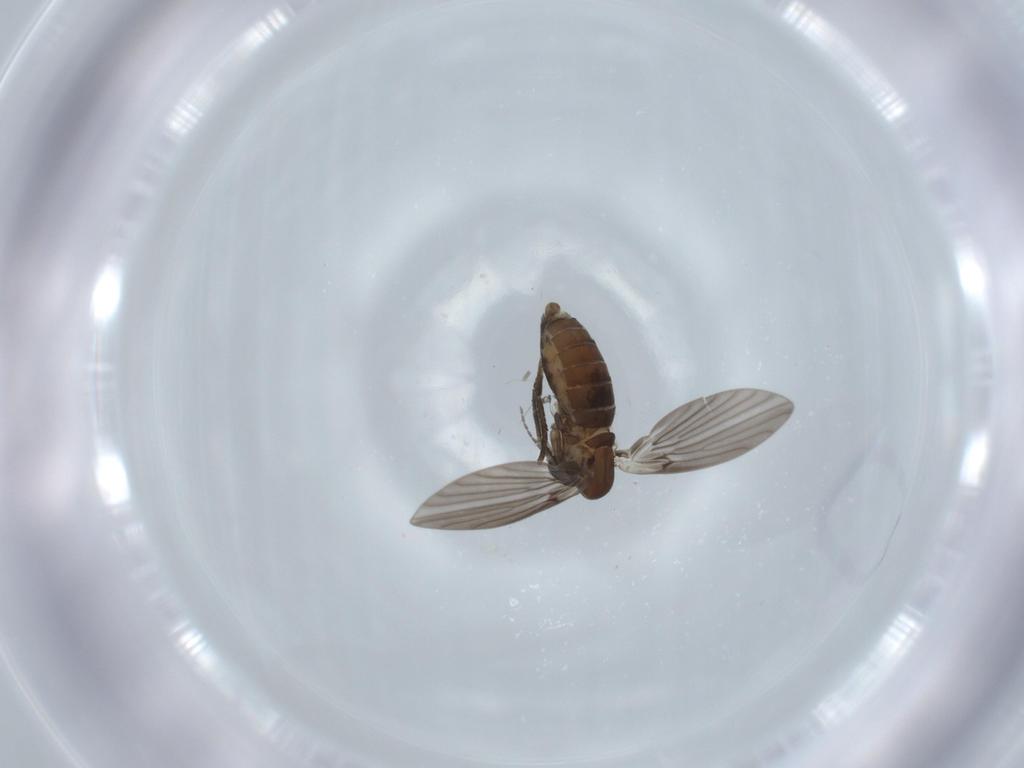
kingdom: Animalia
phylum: Arthropoda
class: Insecta
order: Diptera
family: Psychodidae
